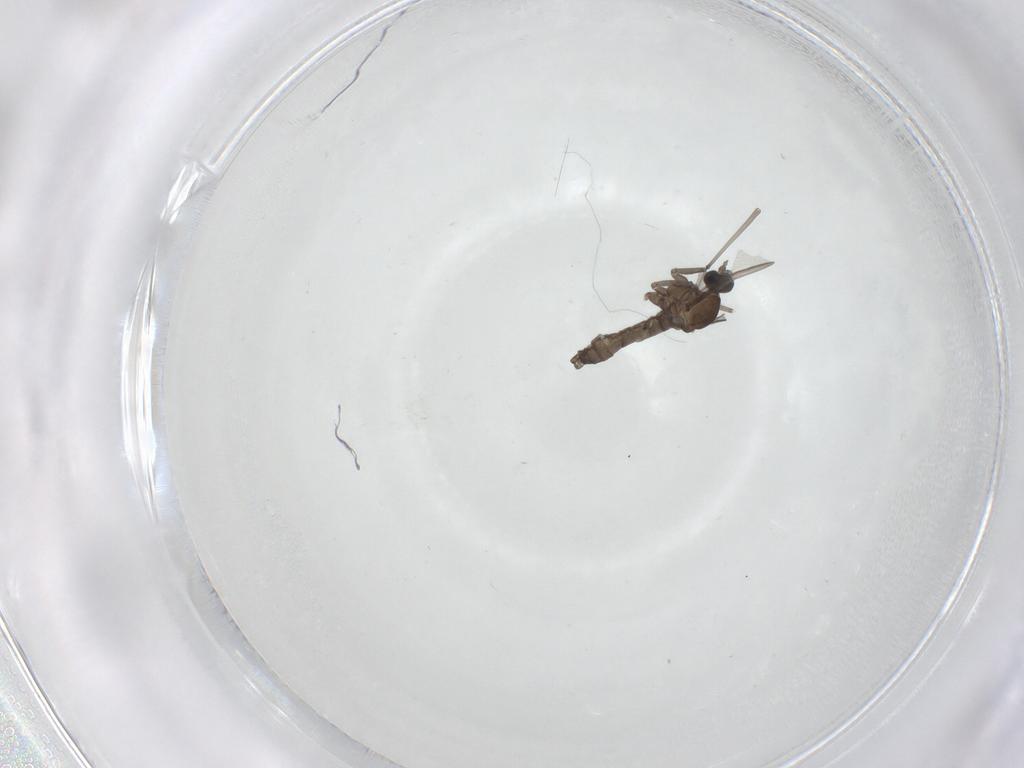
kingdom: Animalia
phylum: Arthropoda
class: Insecta
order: Diptera
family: Cecidomyiidae
